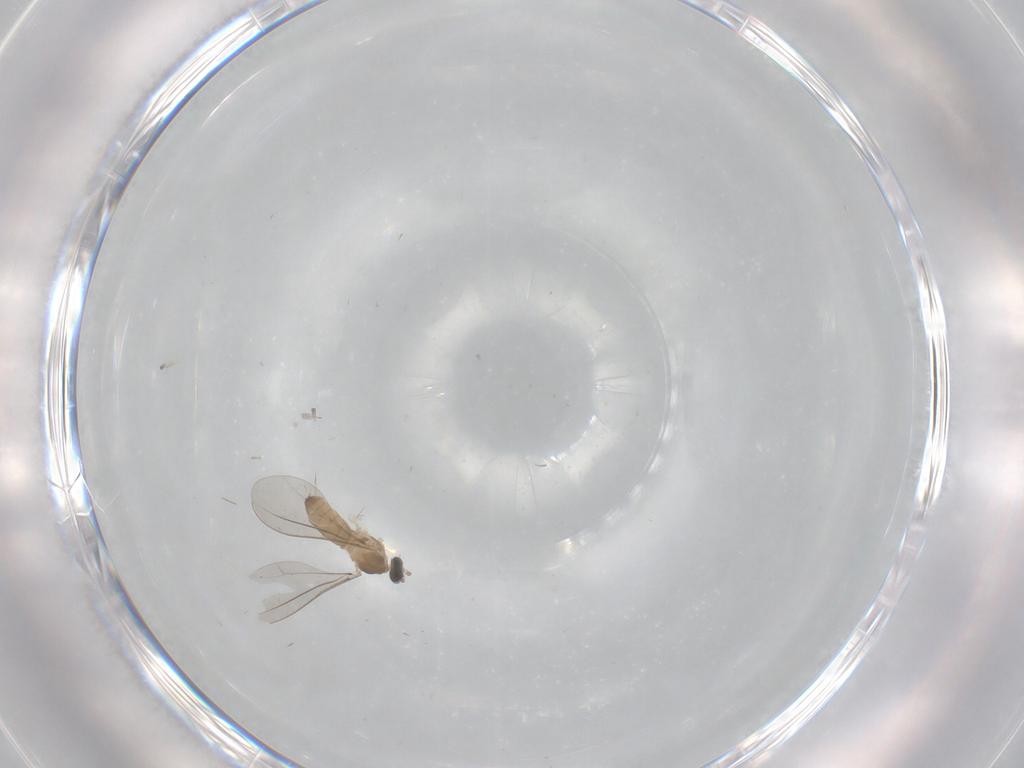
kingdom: Animalia
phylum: Arthropoda
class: Insecta
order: Diptera
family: Cecidomyiidae
